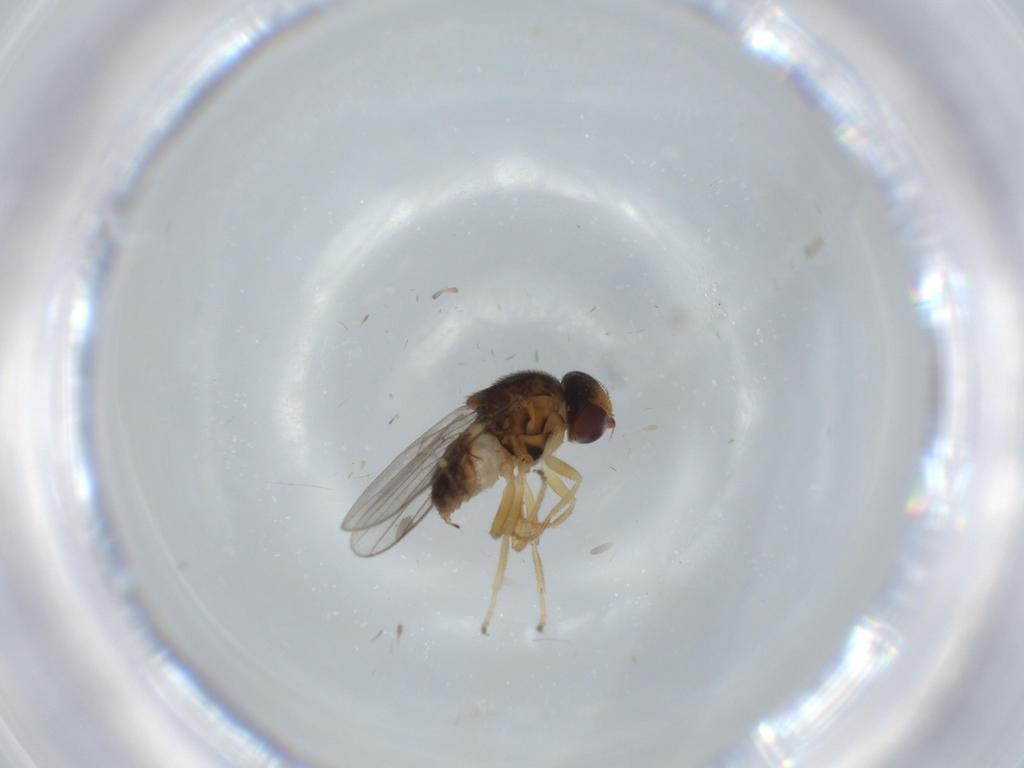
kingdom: Animalia
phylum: Arthropoda
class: Insecta
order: Diptera
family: Chloropidae
